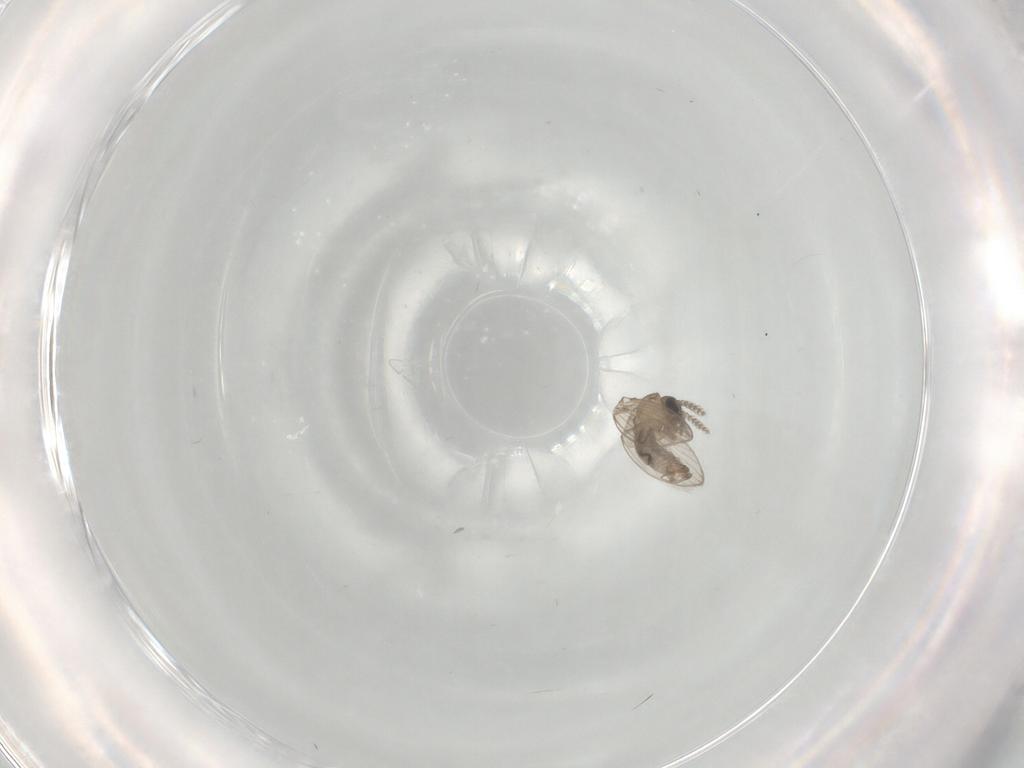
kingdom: Animalia
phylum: Arthropoda
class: Insecta
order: Diptera
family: Psychodidae
